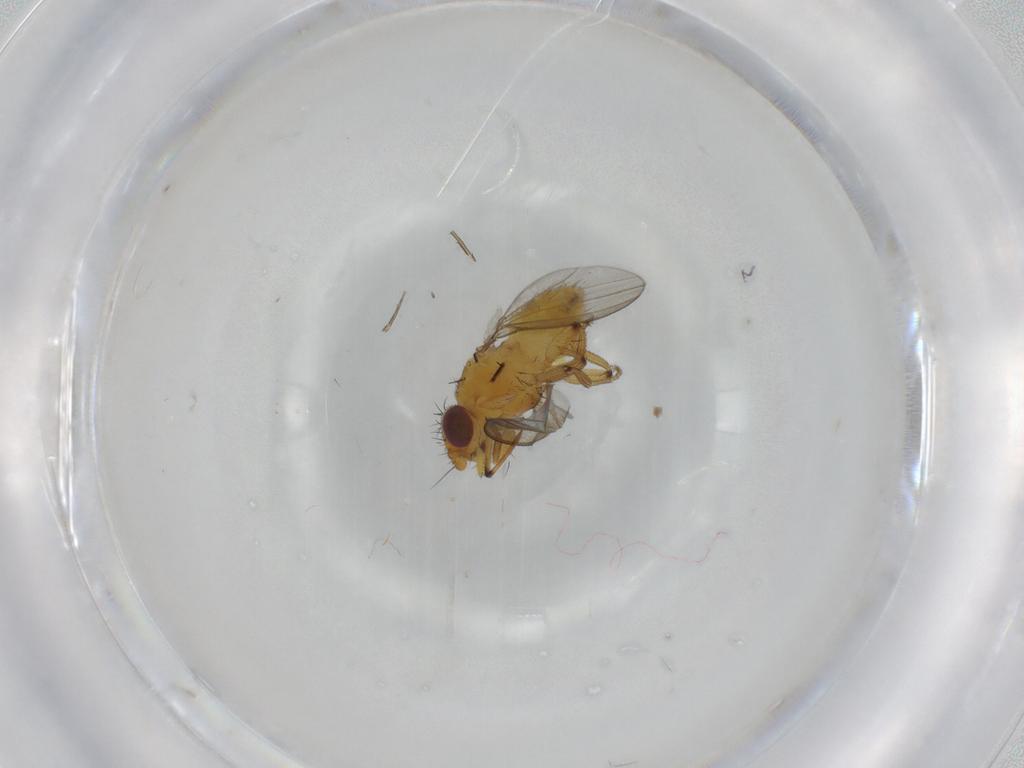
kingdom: Animalia
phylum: Arthropoda
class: Insecta
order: Diptera
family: Milichiidae
